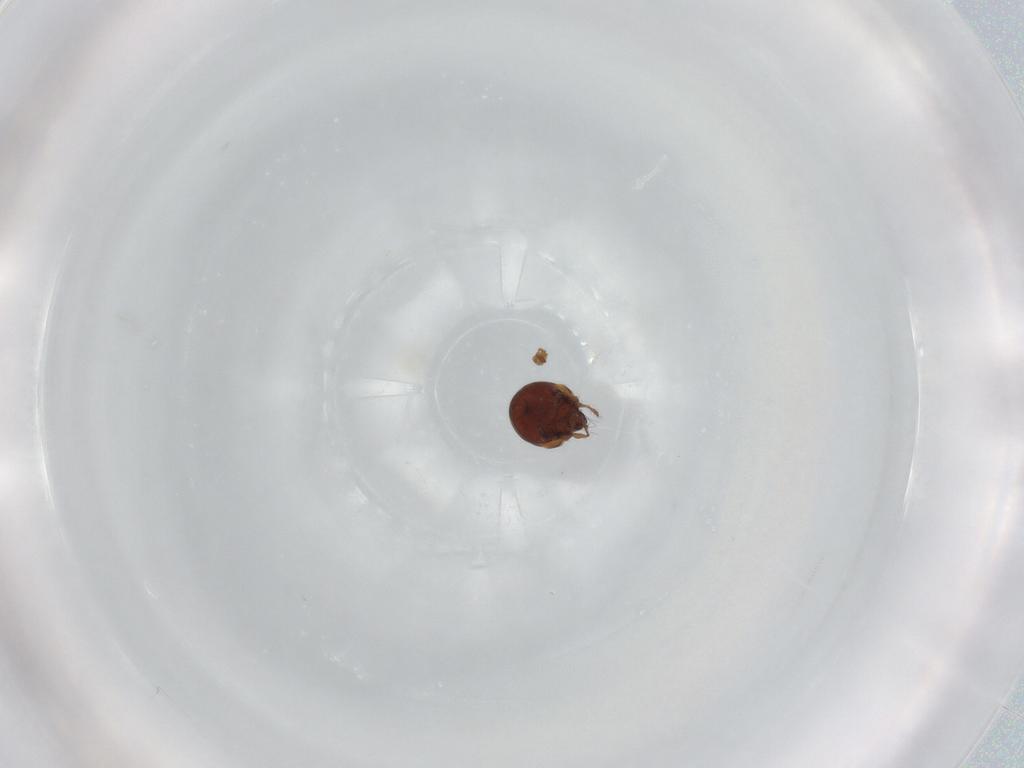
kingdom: Animalia
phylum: Arthropoda
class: Arachnida
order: Sarcoptiformes
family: Mochlozetidae
